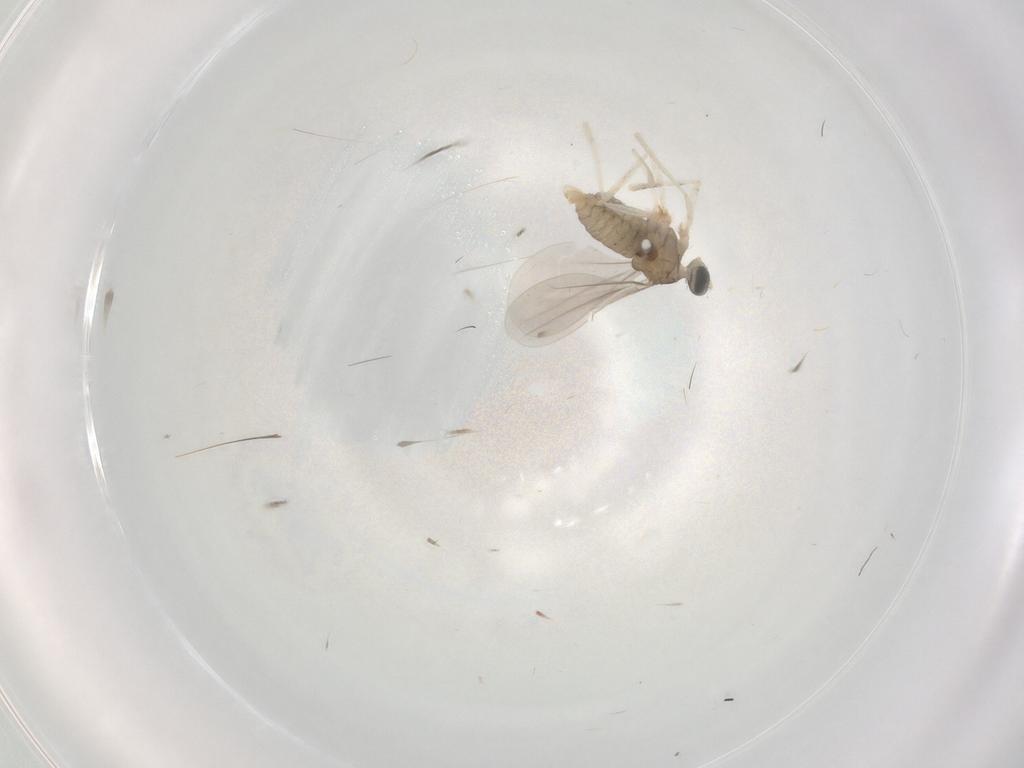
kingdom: Animalia
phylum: Arthropoda
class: Insecta
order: Diptera
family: Cecidomyiidae
